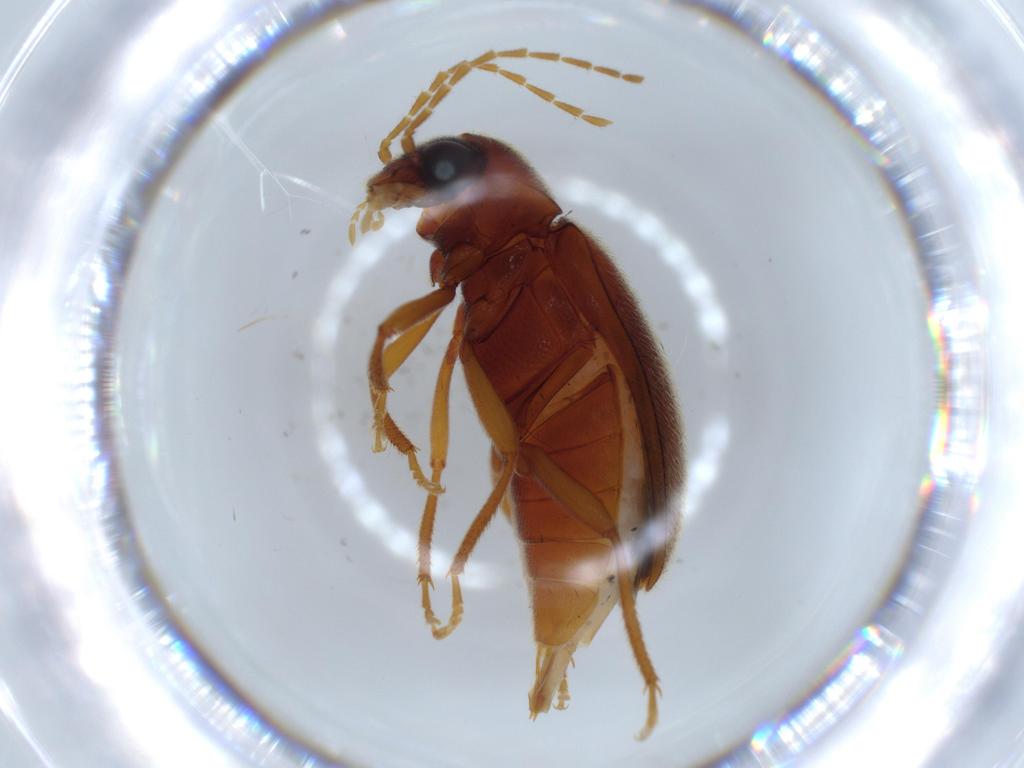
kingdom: Animalia
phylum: Arthropoda
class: Insecta
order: Coleoptera
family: Ptilodactylidae
